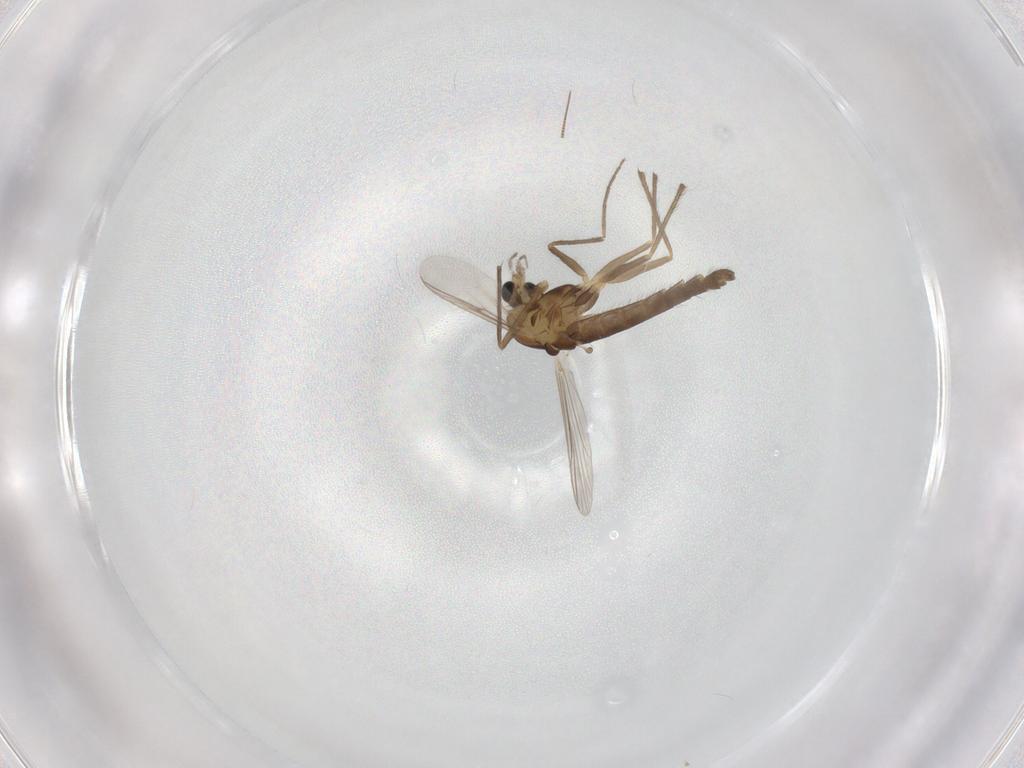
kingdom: Animalia
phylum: Arthropoda
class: Insecta
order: Diptera
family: Chironomidae
